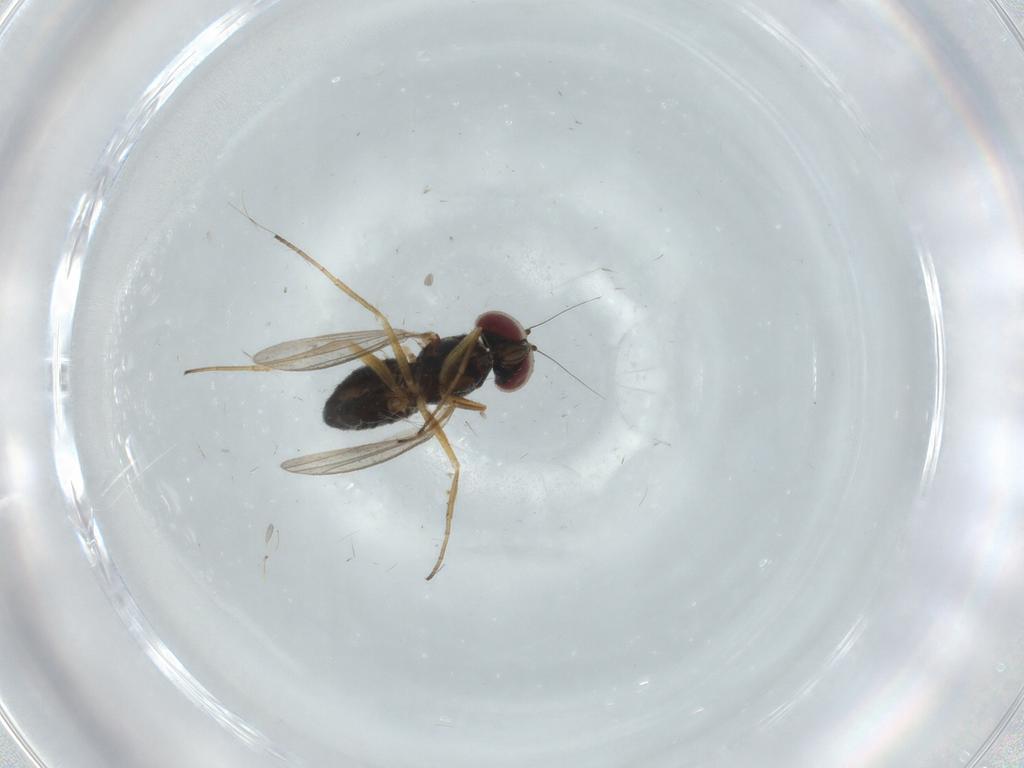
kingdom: Animalia
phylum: Arthropoda
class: Insecta
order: Diptera
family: Dolichopodidae
